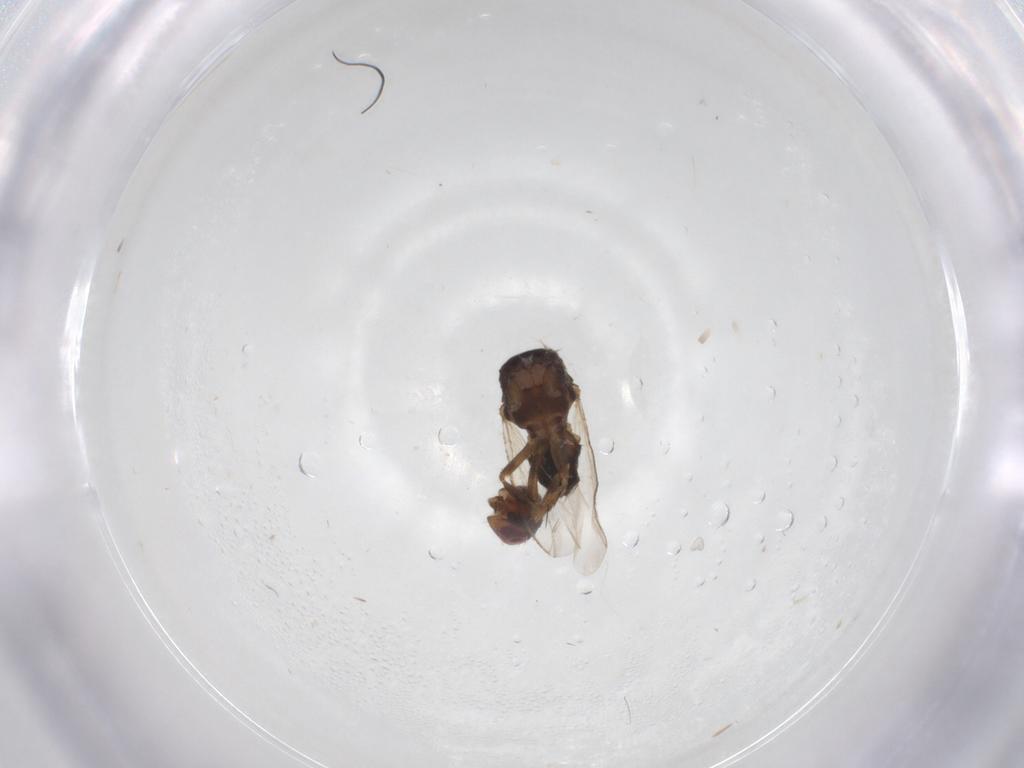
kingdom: Animalia
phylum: Arthropoda
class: Insecta
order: Diptera
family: Sphaeroceridae
